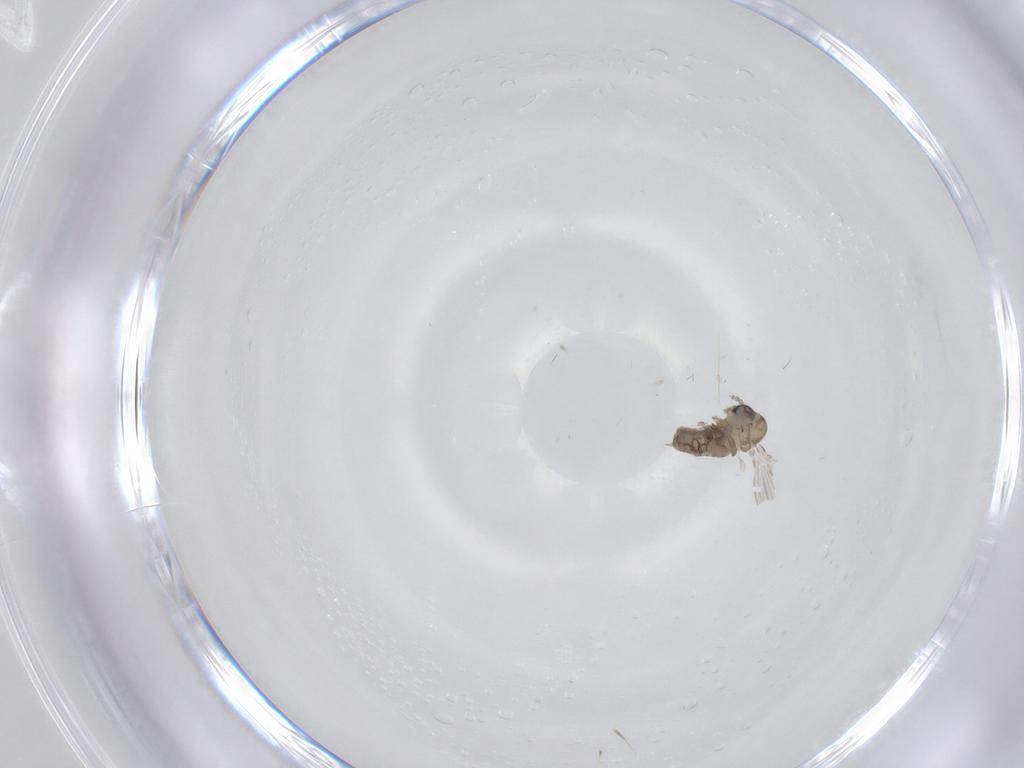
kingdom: Animalia
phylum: Arthropoda
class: Insecta
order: Diptera
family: Psychodidae
